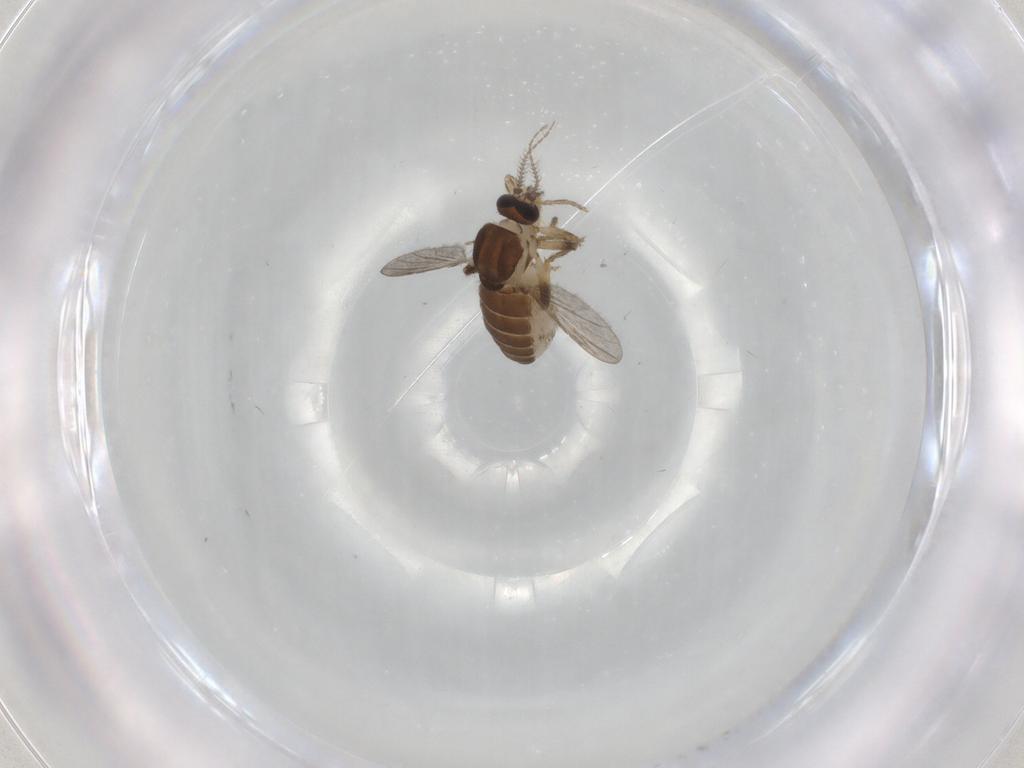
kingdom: Animalia
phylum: Arthropoda
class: Insecta
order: Diptera
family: Ceratopogonidae
